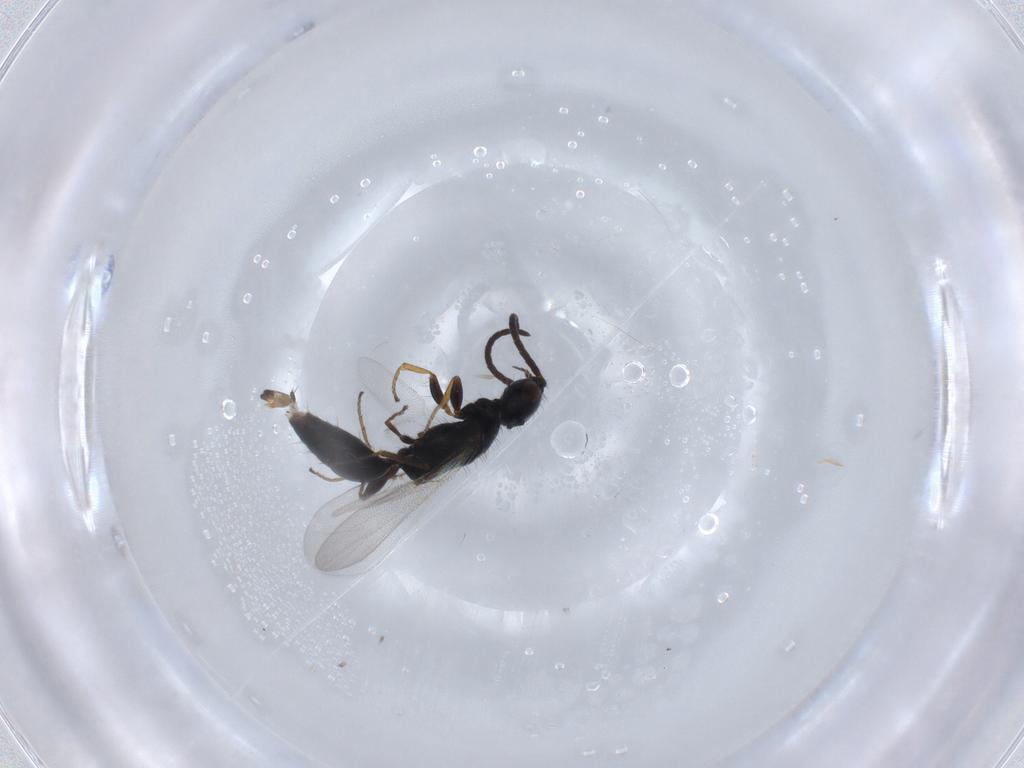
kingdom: Animalia
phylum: Arthropoda
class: Insecta
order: Hymenoptera
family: Bethylidae
